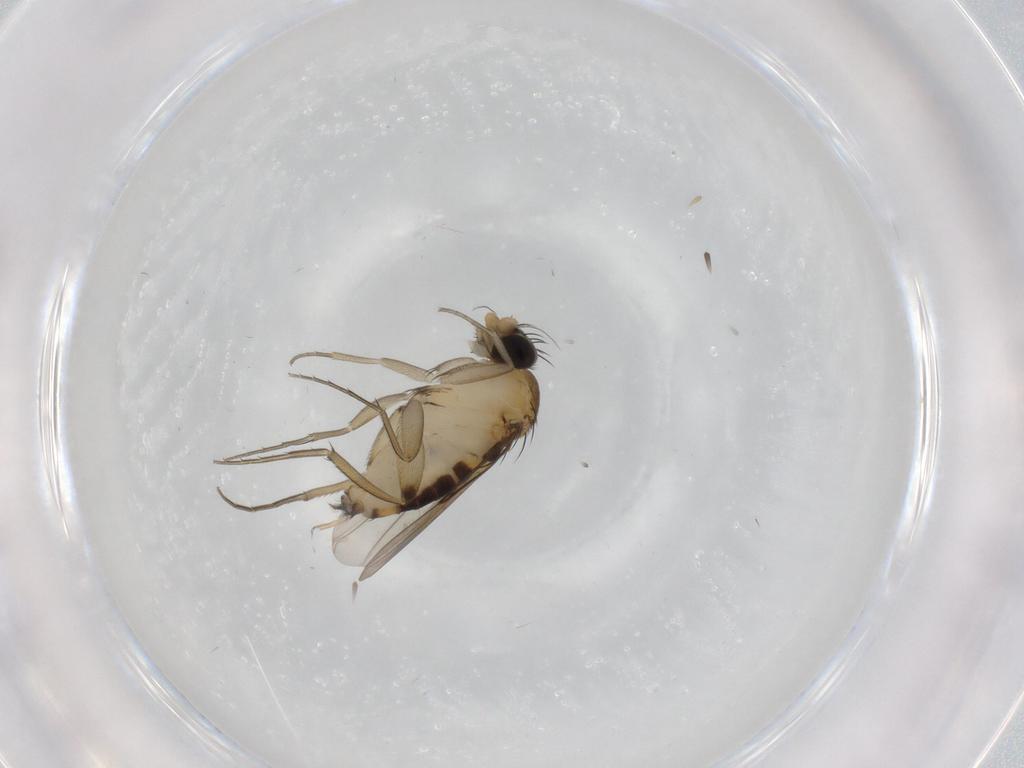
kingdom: Animalia
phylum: Arthropoda
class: Insecta
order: Diptera
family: Phoridae
